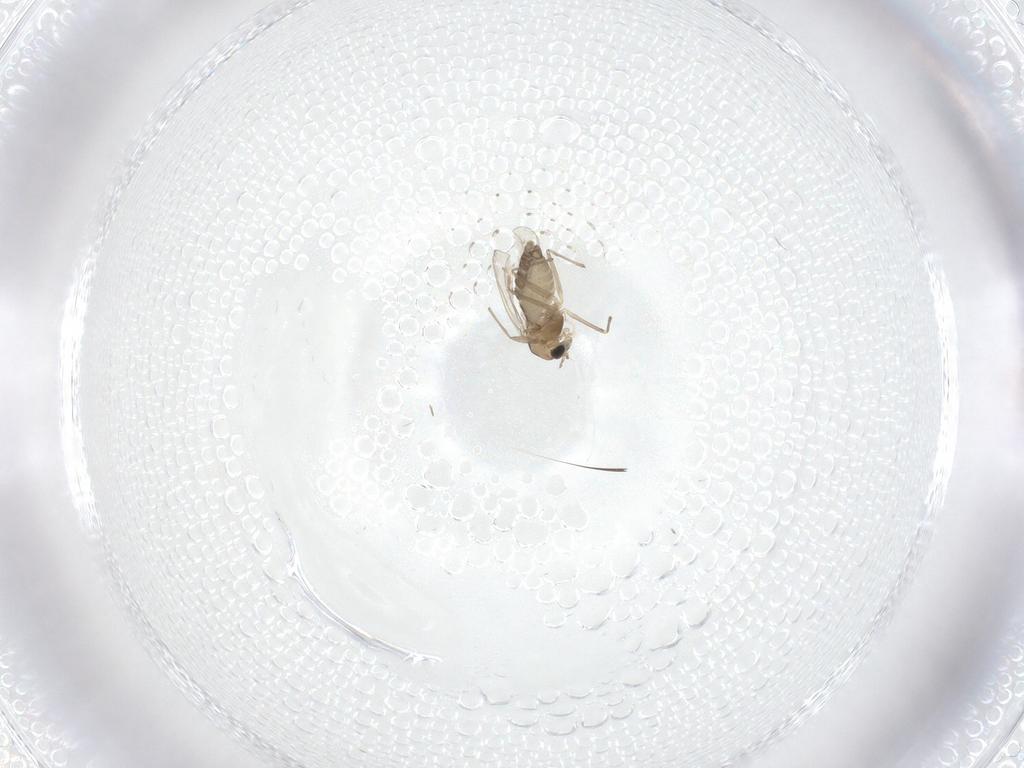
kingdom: Animalia
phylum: Arthropoda
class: Insecta
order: Diptera
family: Chironomidae
